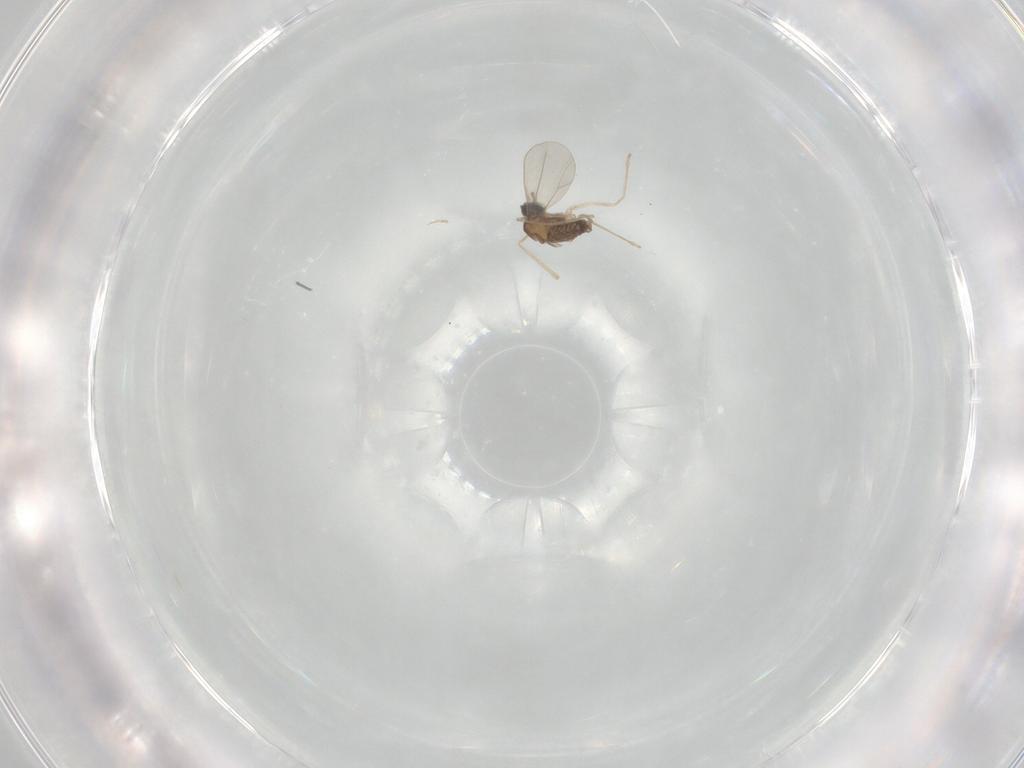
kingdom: Animalia
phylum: Arthropoda
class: Insecta
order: Diptera
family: Cecidomyiidae
